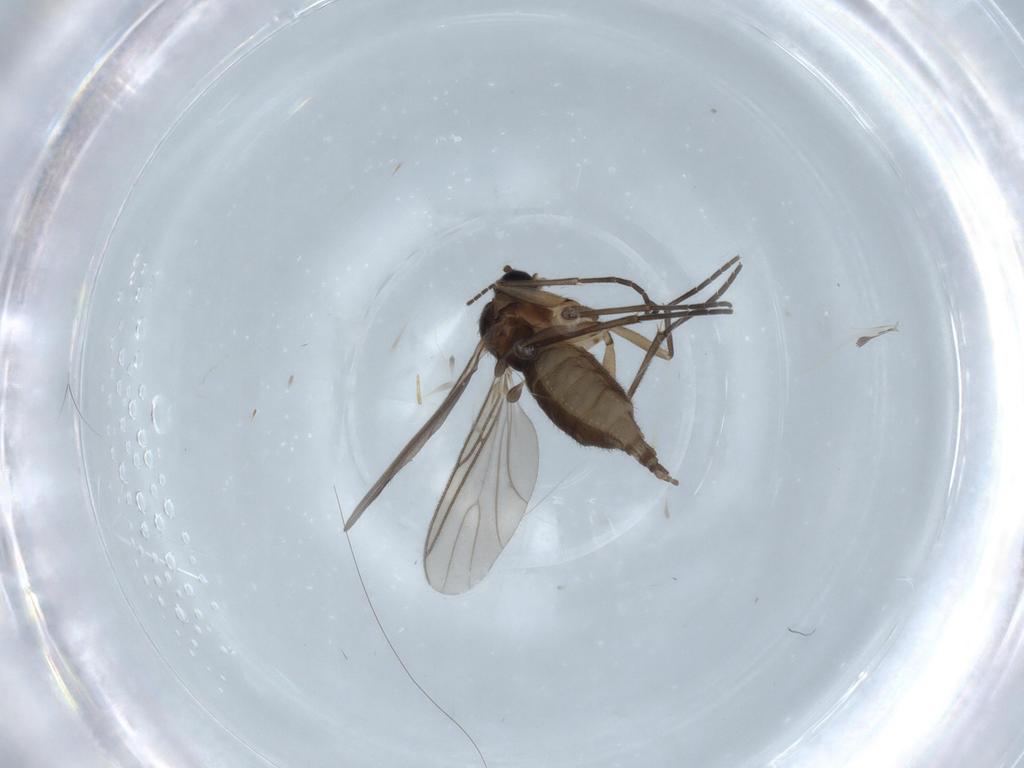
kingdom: Animalia
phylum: Arthropoda
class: Insecta
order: Diptera
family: Sciaridae
